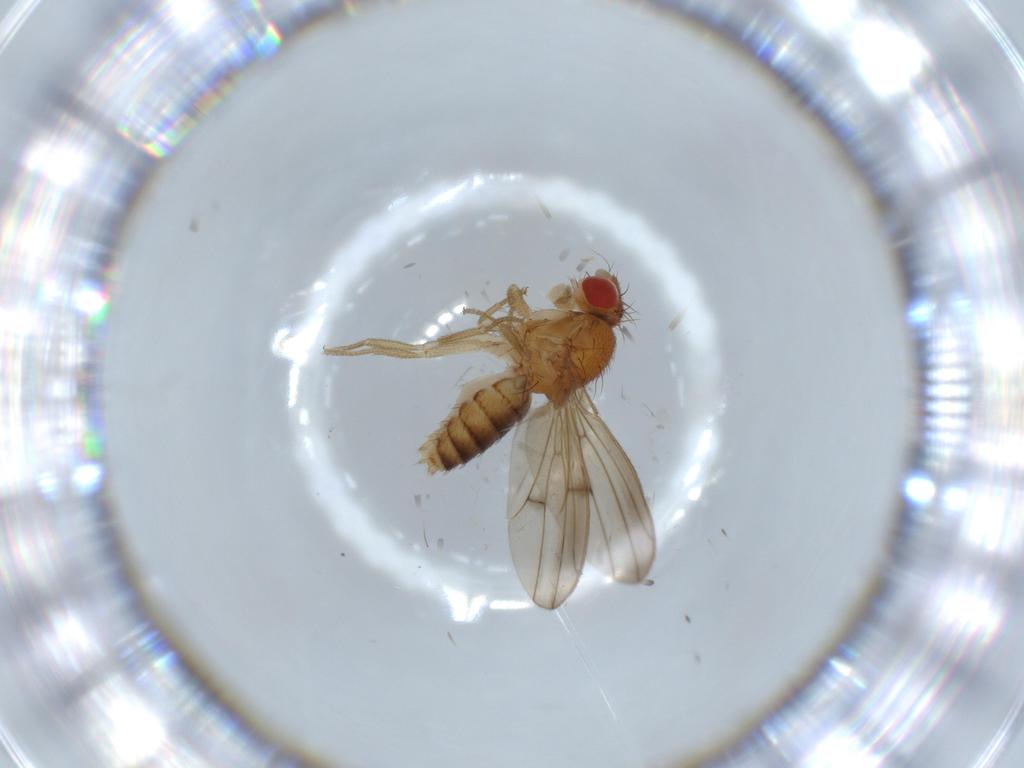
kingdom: Animalia
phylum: Arthropoda
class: Insecta
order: Diptera
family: Drosophilidae
